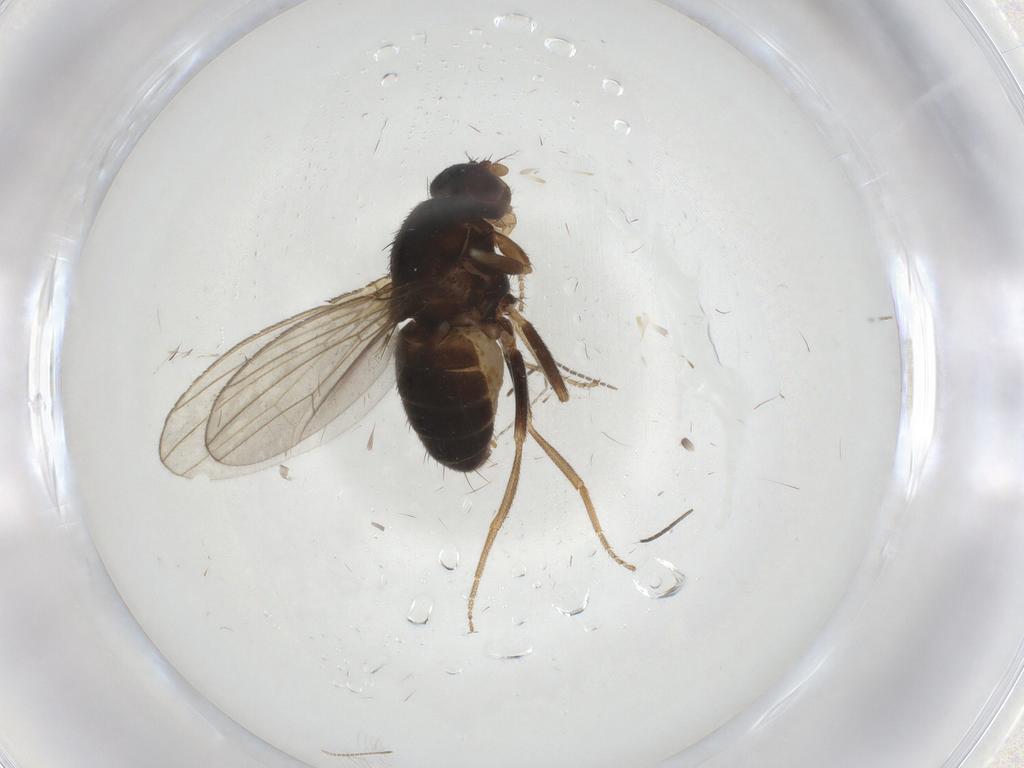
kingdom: Animalia
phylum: Arthropoda
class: Insecta
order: Diptera
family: Drosophilidae
